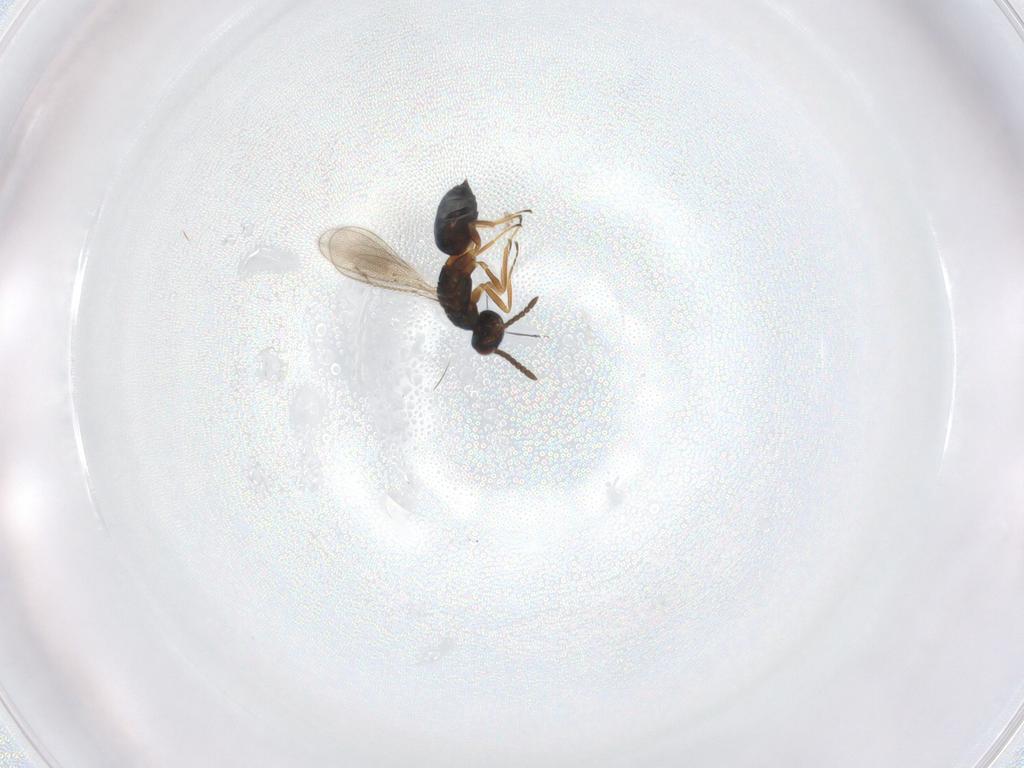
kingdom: Animalia
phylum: Arthropoda
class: Insecta
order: Hymenoptera
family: Tetracampidae
